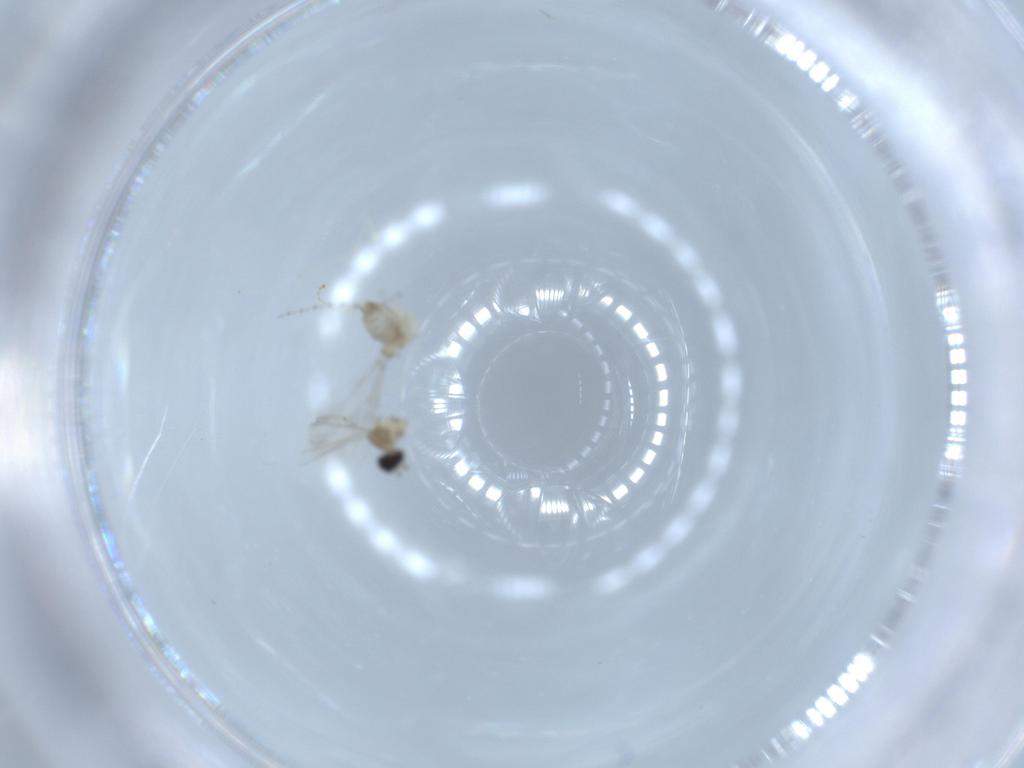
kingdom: Animalia
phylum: Arthropoda
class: Insecta
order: Diptera
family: Cecidomyiidae
